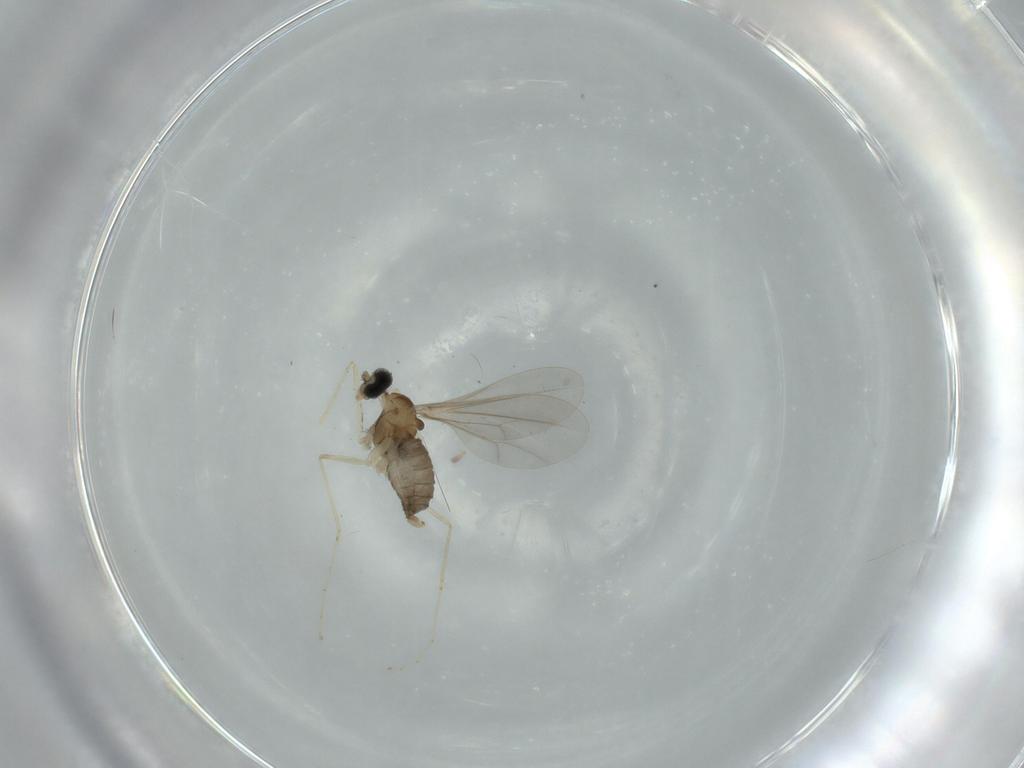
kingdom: Animalia
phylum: Arthropoda
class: Insecta
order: Diptera
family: Cecidomyiidae
